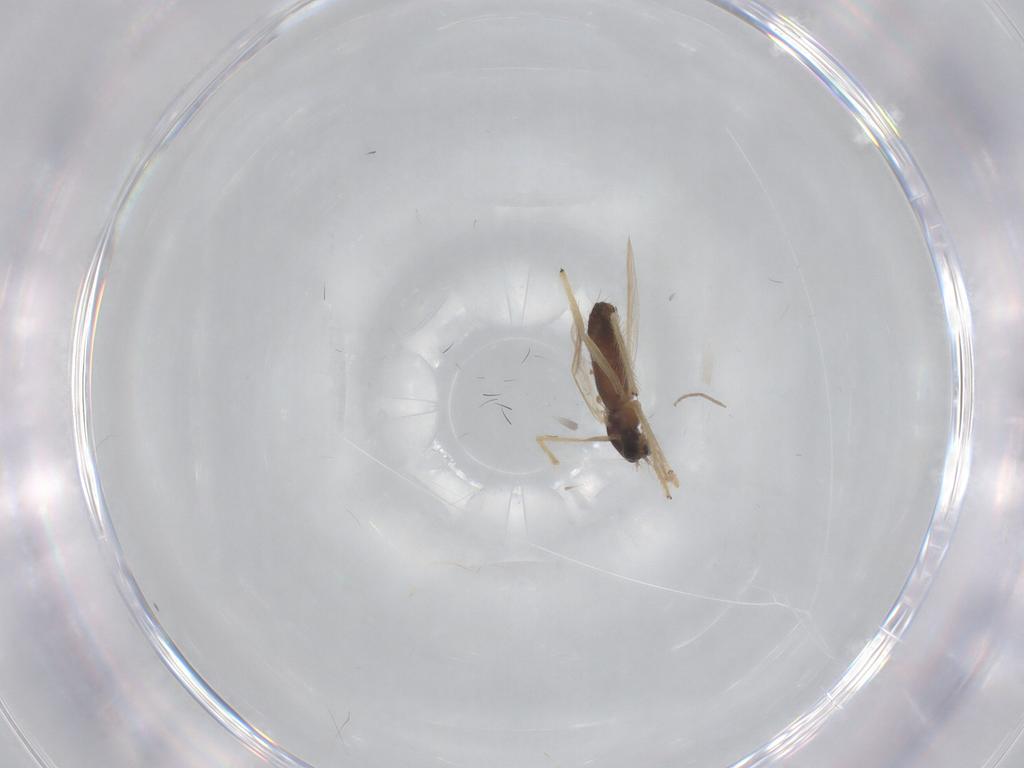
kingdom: Animalia
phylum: Arthropoda
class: Insecta
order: Diptera
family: Chironomidae
